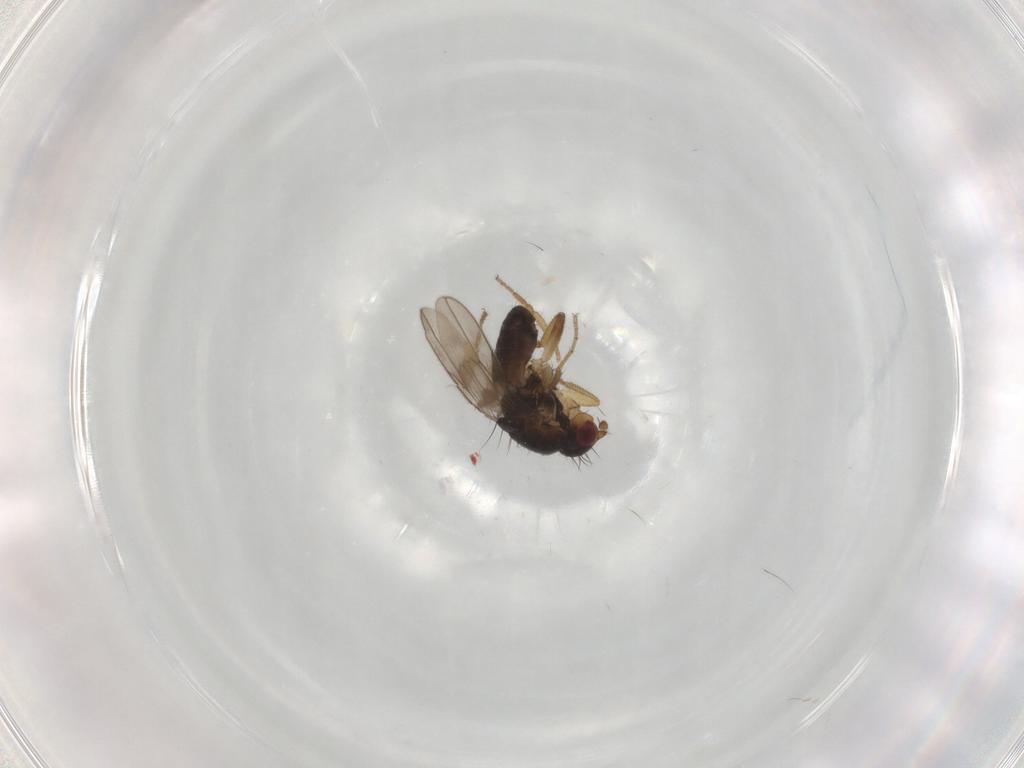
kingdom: Animalia
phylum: Arthropoda
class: Insecta
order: Diptera
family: Sphaeroceridae
